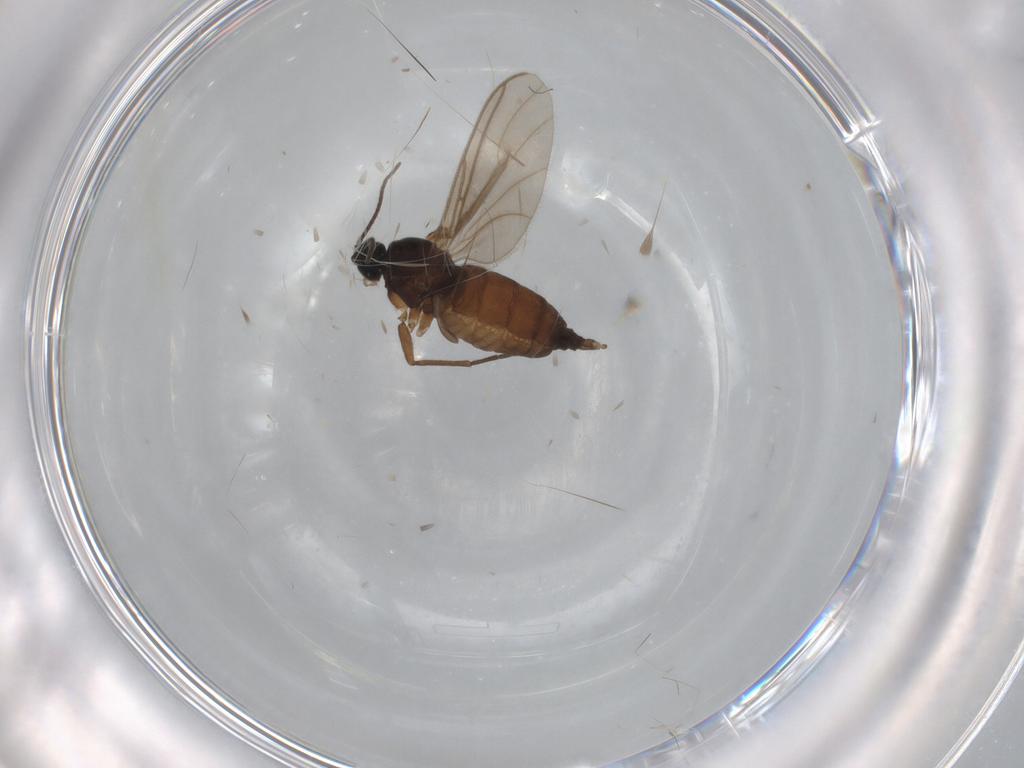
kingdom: Animalia
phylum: Arthropoda
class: Insecta
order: Diptera
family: Sciaridae
